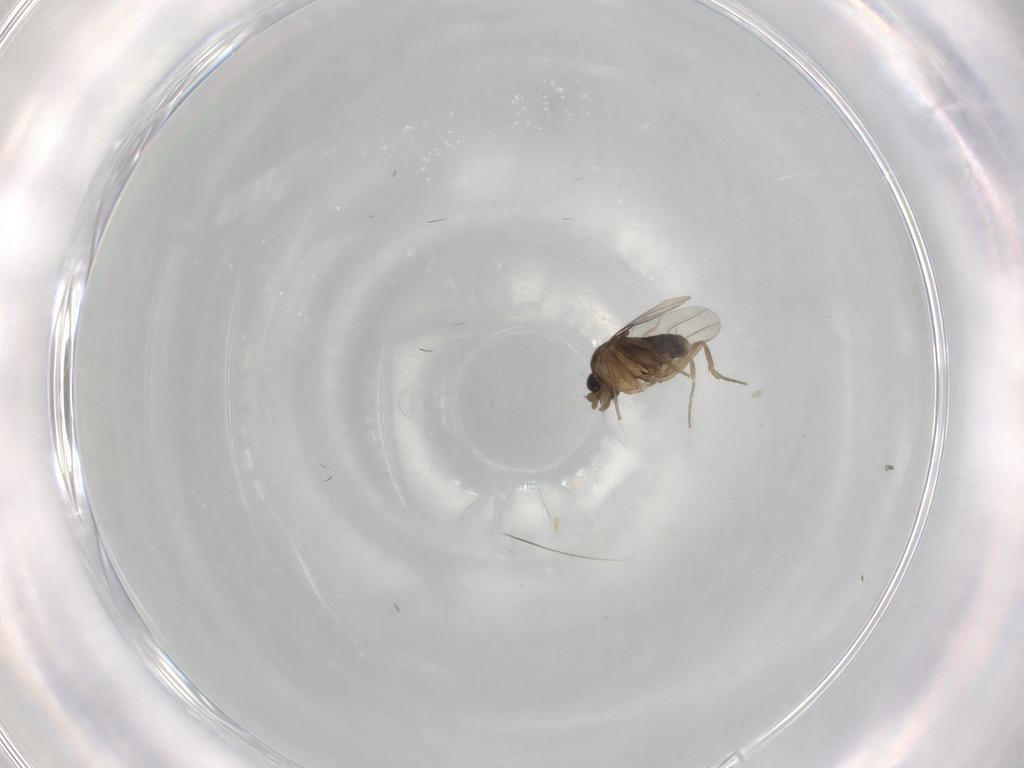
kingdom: Animalia
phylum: Arthropoda
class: Insecta
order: Diptera
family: Phoridae
